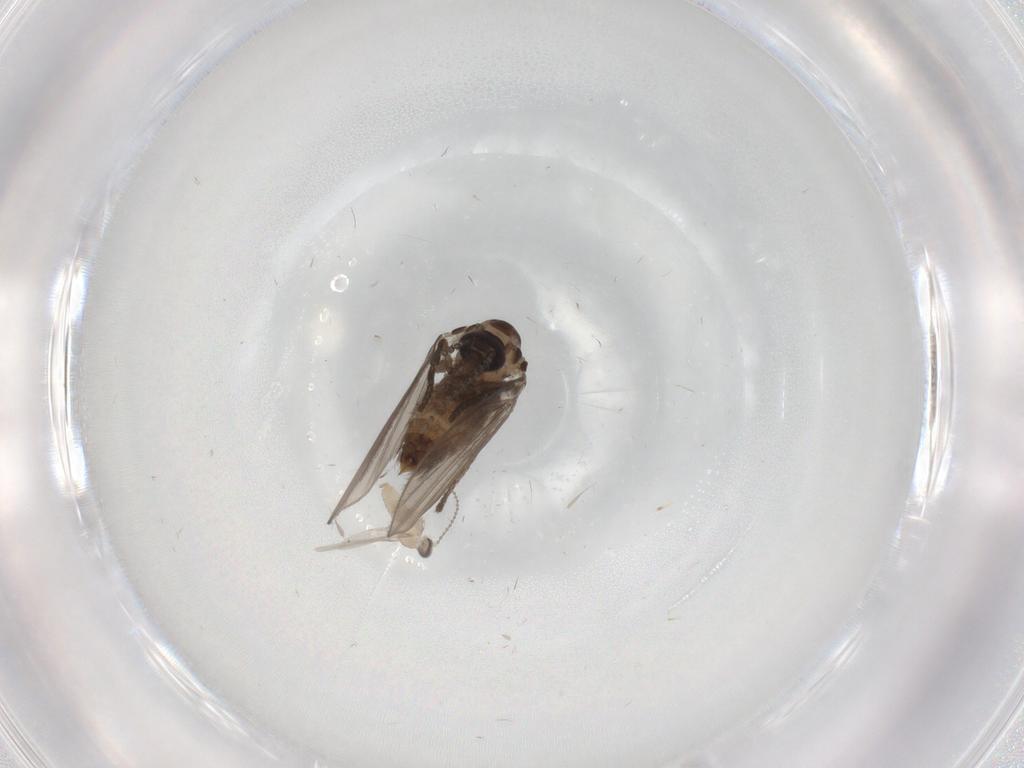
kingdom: Animalia
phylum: Arthropoda
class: Insecta
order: Diptera
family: Psychodidae
